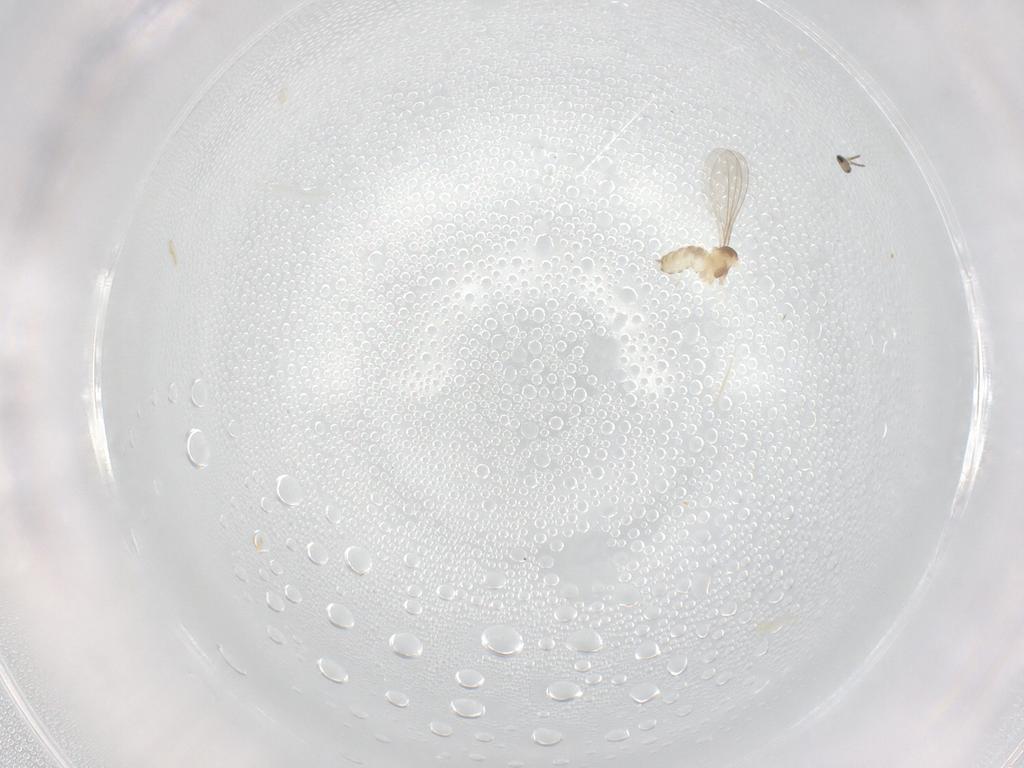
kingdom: Animalia
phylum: Arthropoda
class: Insecta
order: Diptera
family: Cecidomyiidae
